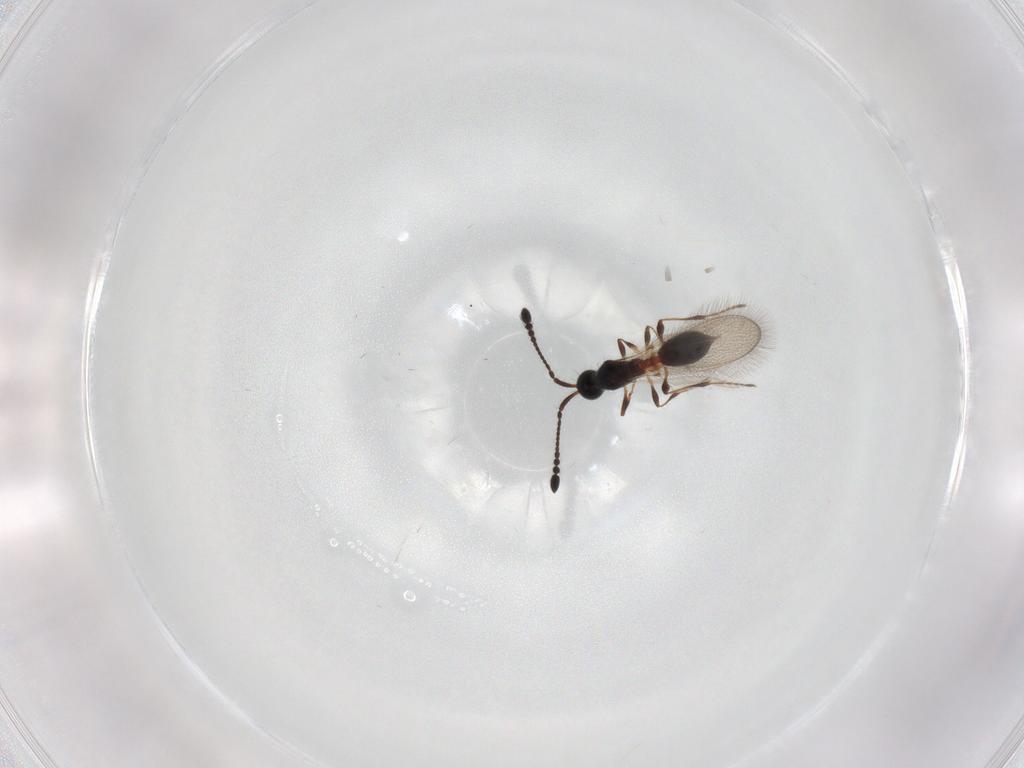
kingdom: Animalia
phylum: Arthropoda
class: Insecta
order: Hymenoptera
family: Diapriidae
